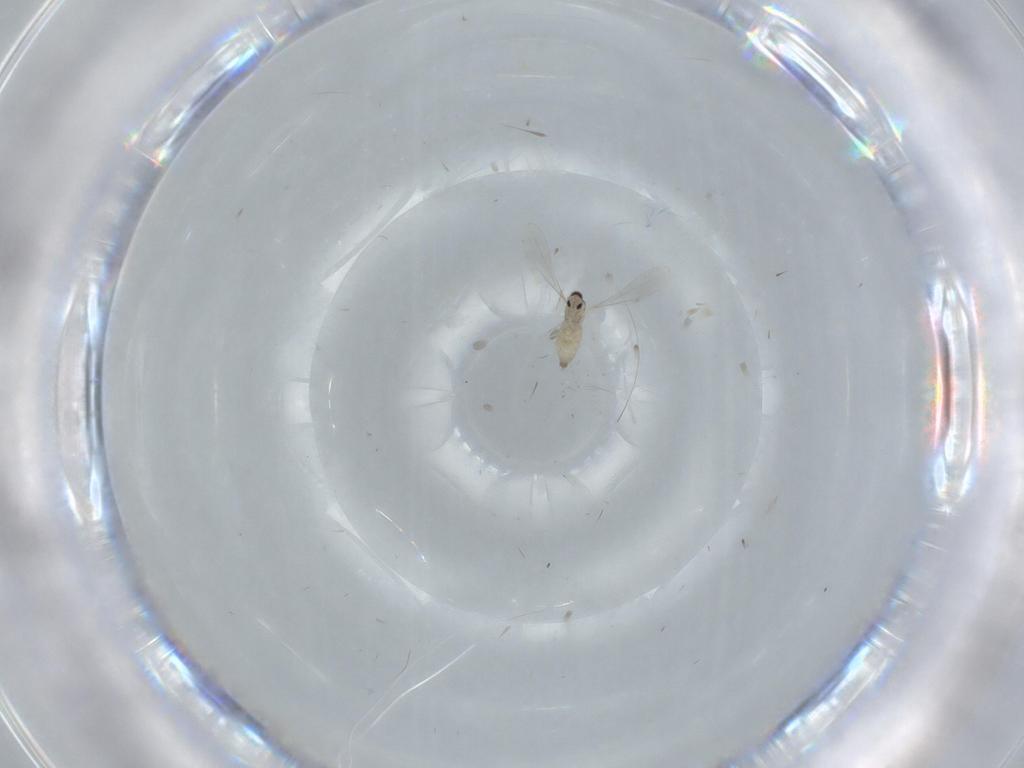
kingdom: Animalia
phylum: Arthropoda
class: Insecta
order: Diptera
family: Cecidomyiidae
